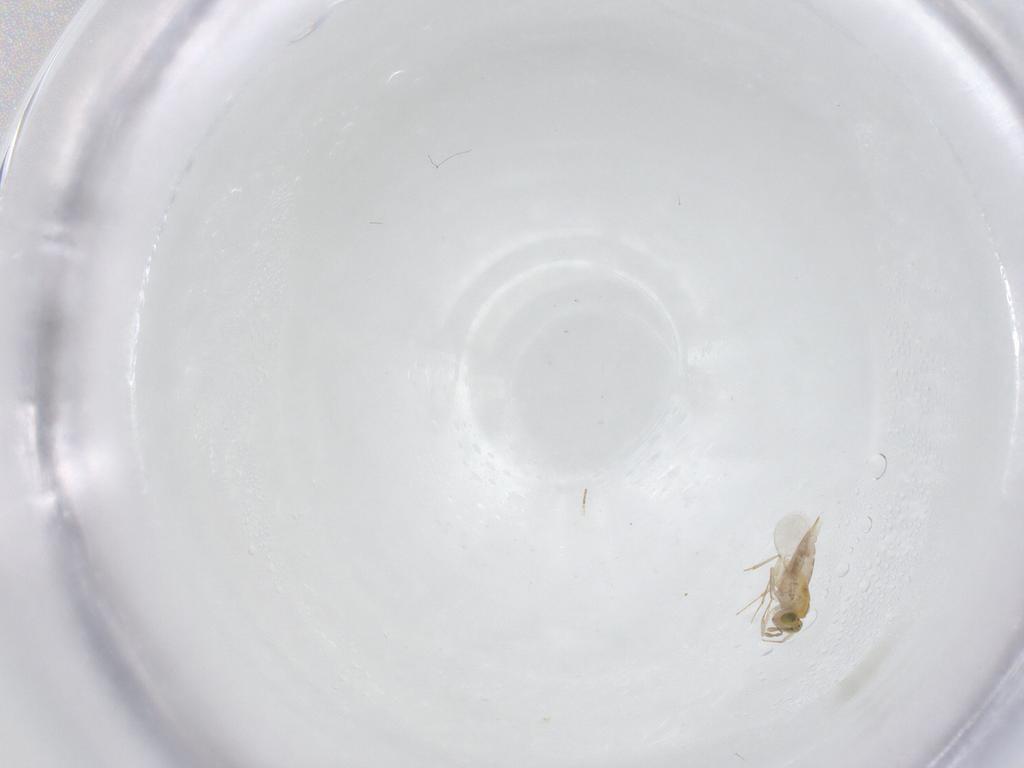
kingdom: Animalia
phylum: Arthropoda
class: Insecta
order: Hymenoptera
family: Aphelinidae
